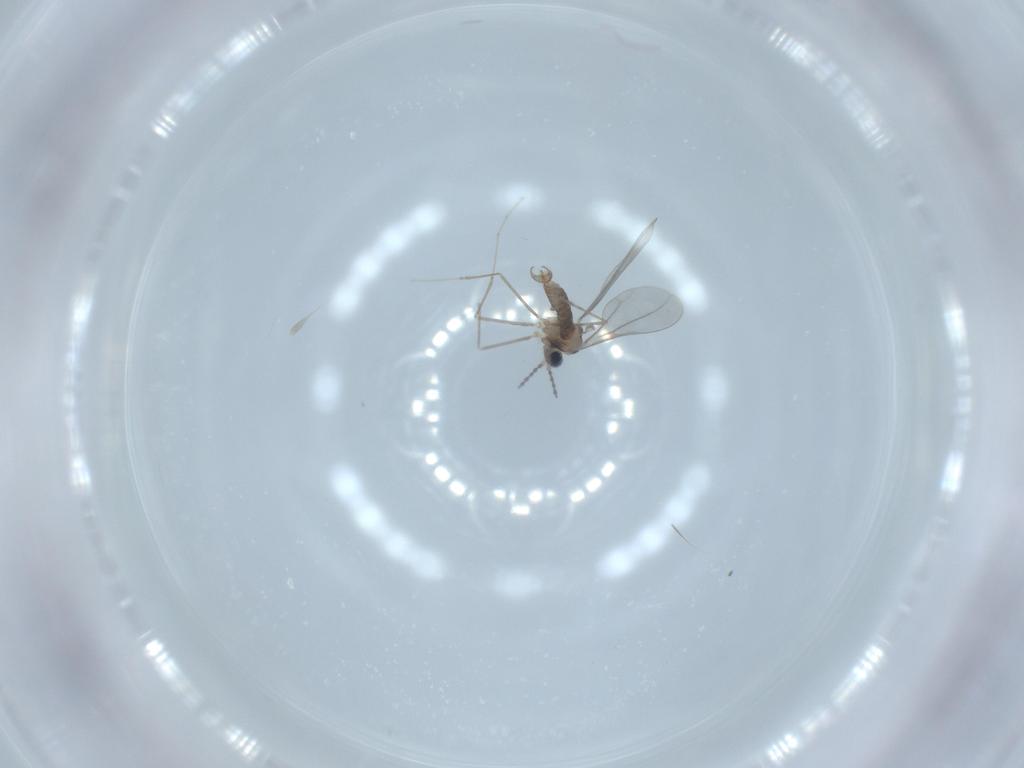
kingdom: Animalia
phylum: Arthropoda
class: Insecta
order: Diptera
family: Cecidomyiidae
